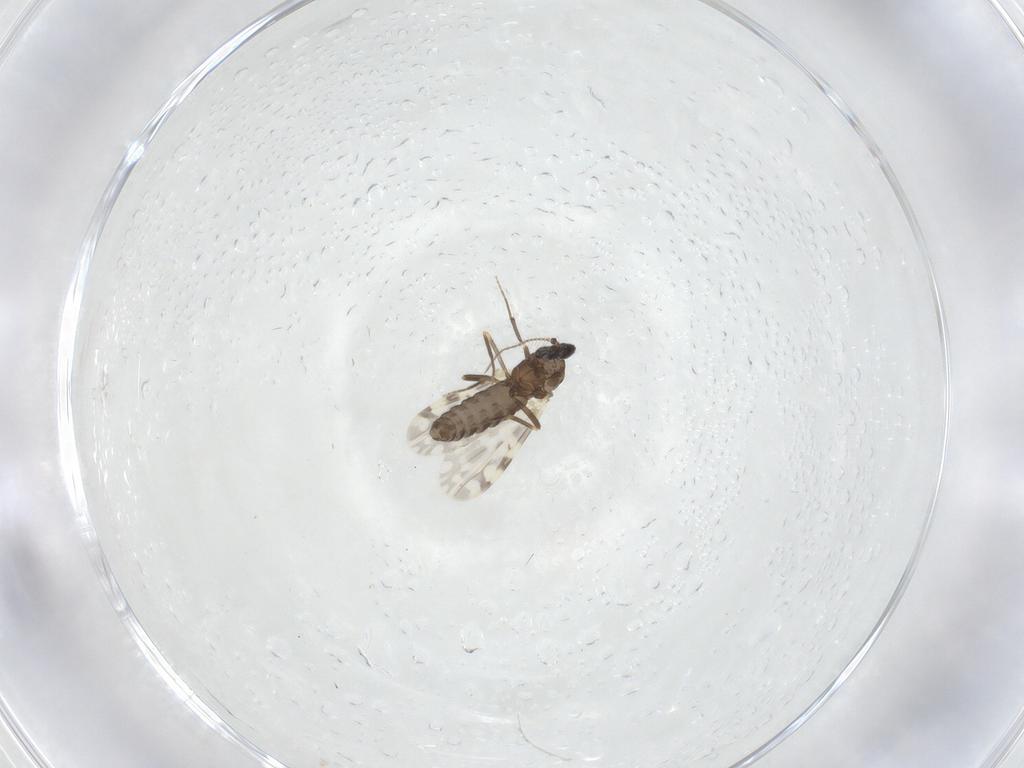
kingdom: Animalia
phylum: Arthropoda
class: Insecta
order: Diptera
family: Ceratopogonidae
